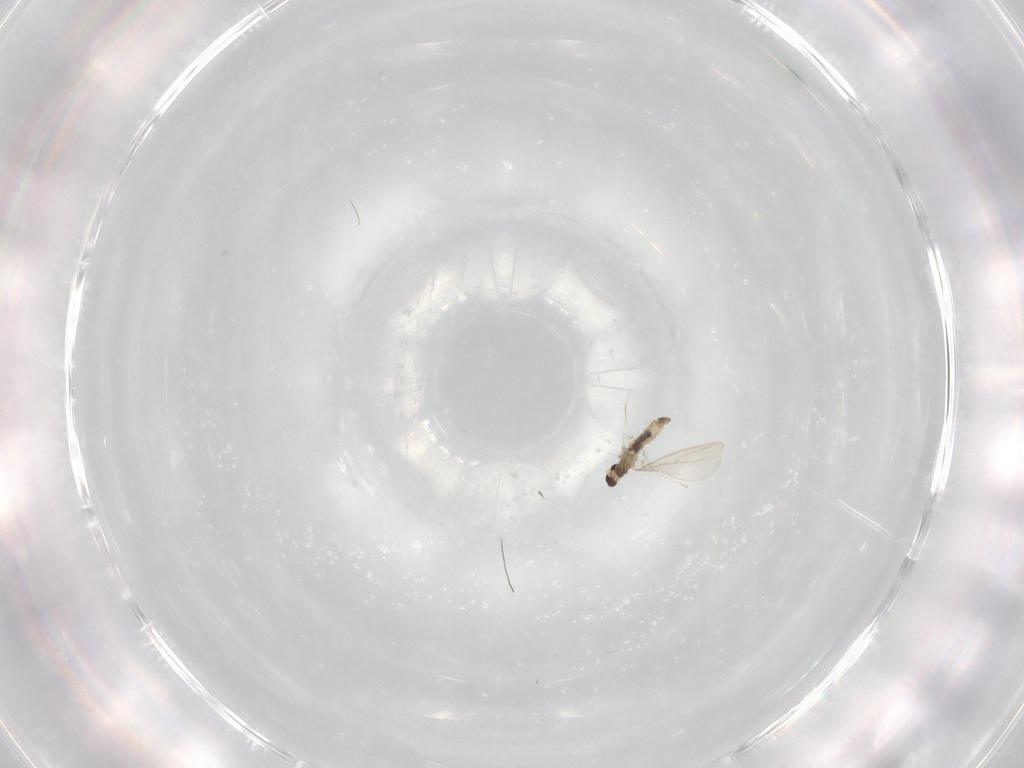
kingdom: Animalia
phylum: Arthropoda
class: Insecta
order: Diptera
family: Cecidomyiidae
